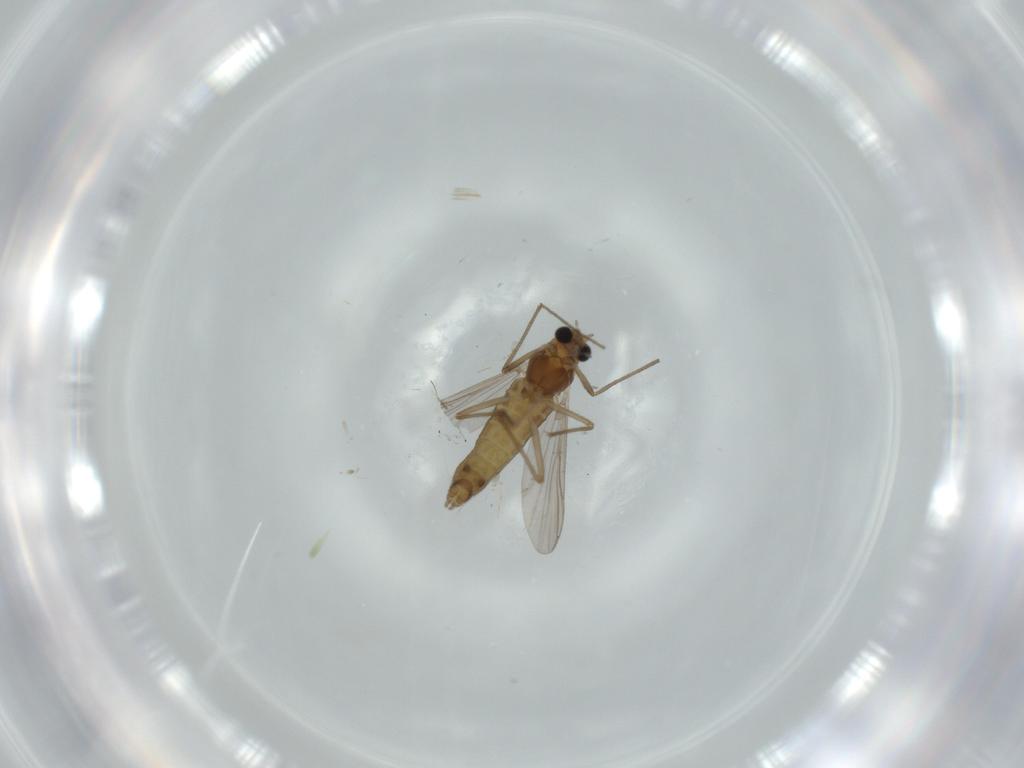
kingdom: Animalia
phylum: Arthropoda
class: Insecta
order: Diptera
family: Chironomidae
